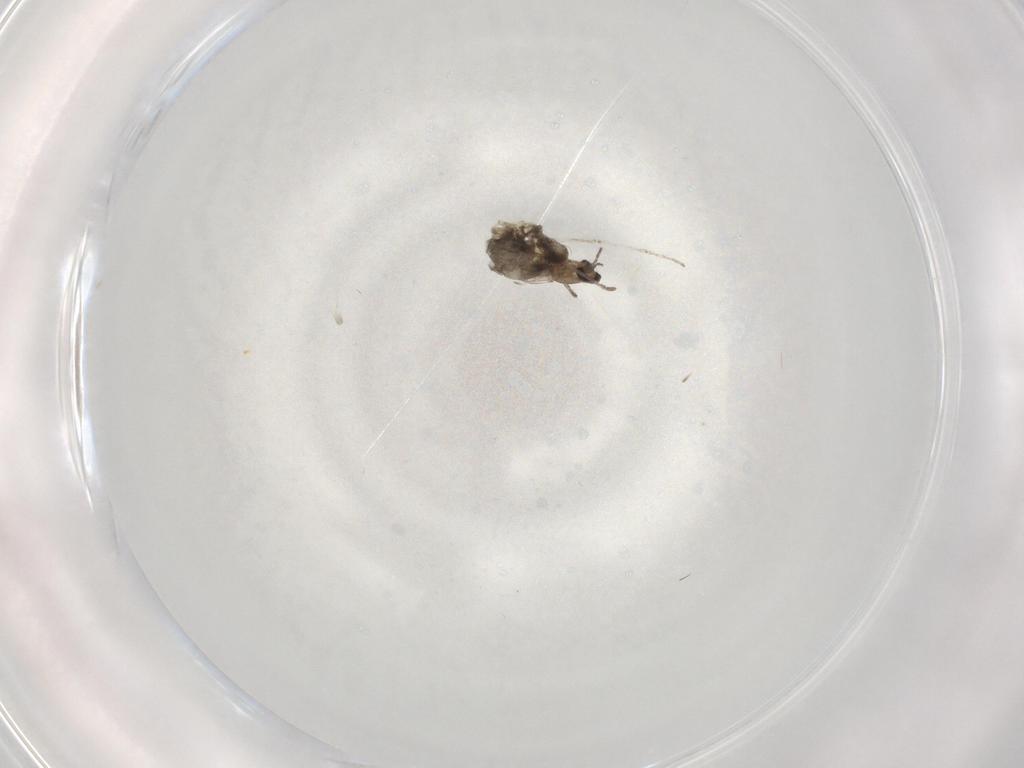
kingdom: Animalia
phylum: Arthropoda
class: Insecta
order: Diptera
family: Cecidomyiidae
